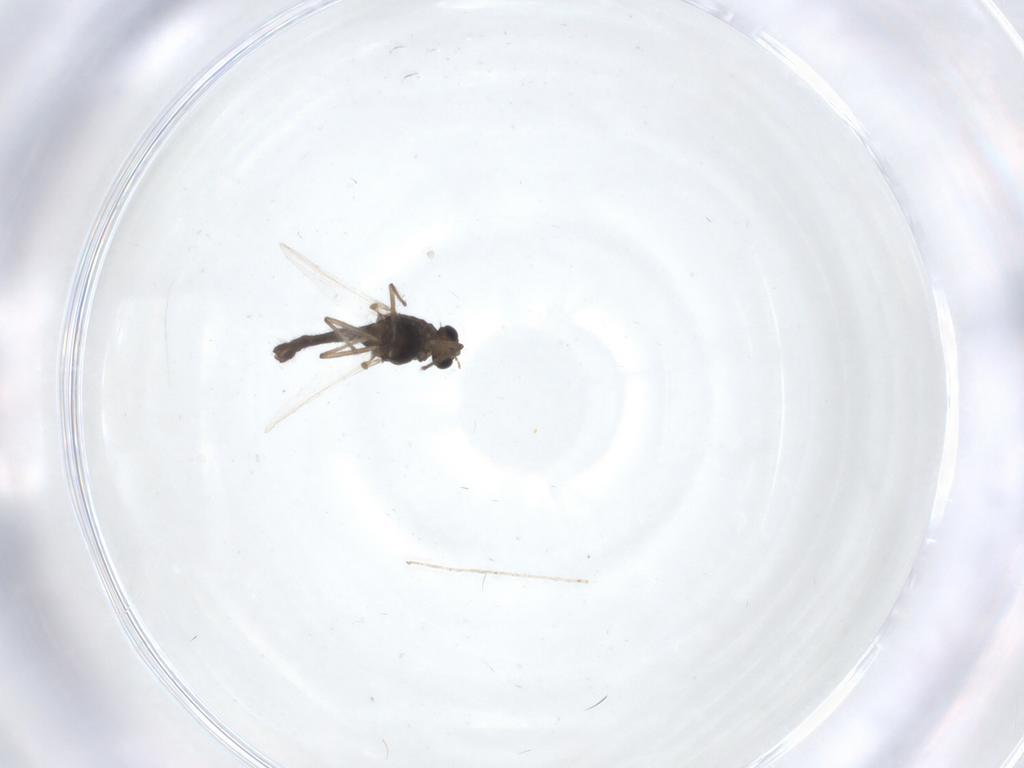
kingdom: Animalia
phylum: Arthropoda
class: Insecta
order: Diptera
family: Cecidomyiidae
